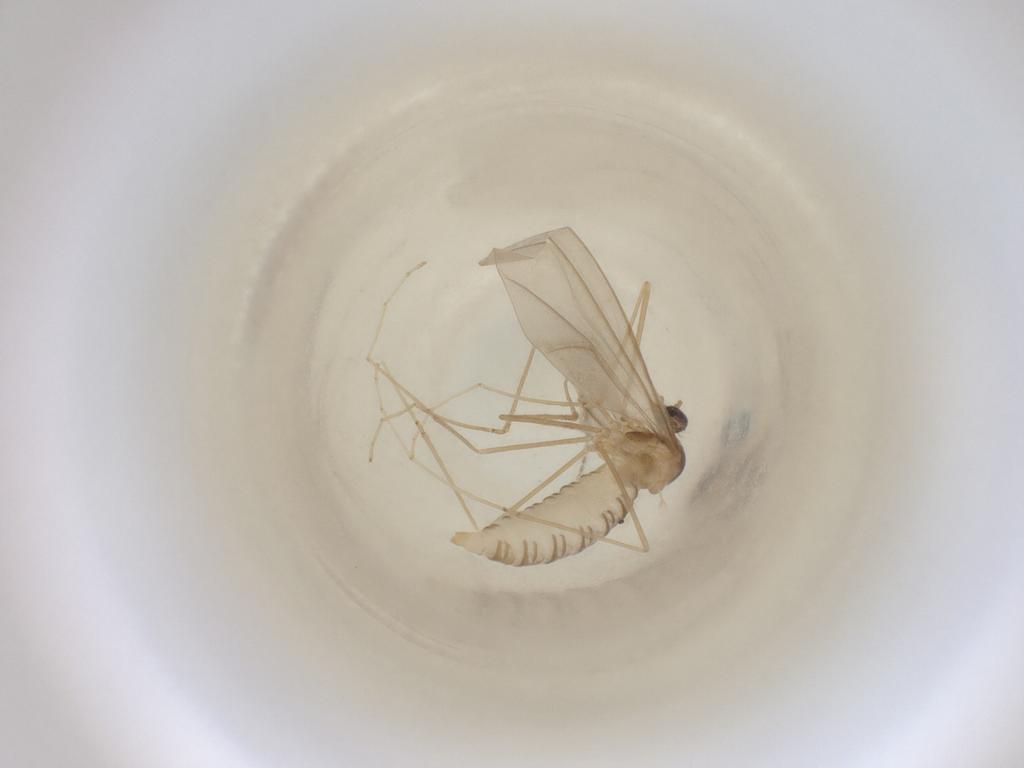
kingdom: Animalia
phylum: Arthropoda
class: Insecta
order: Diptera
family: Cecidomyiidae
